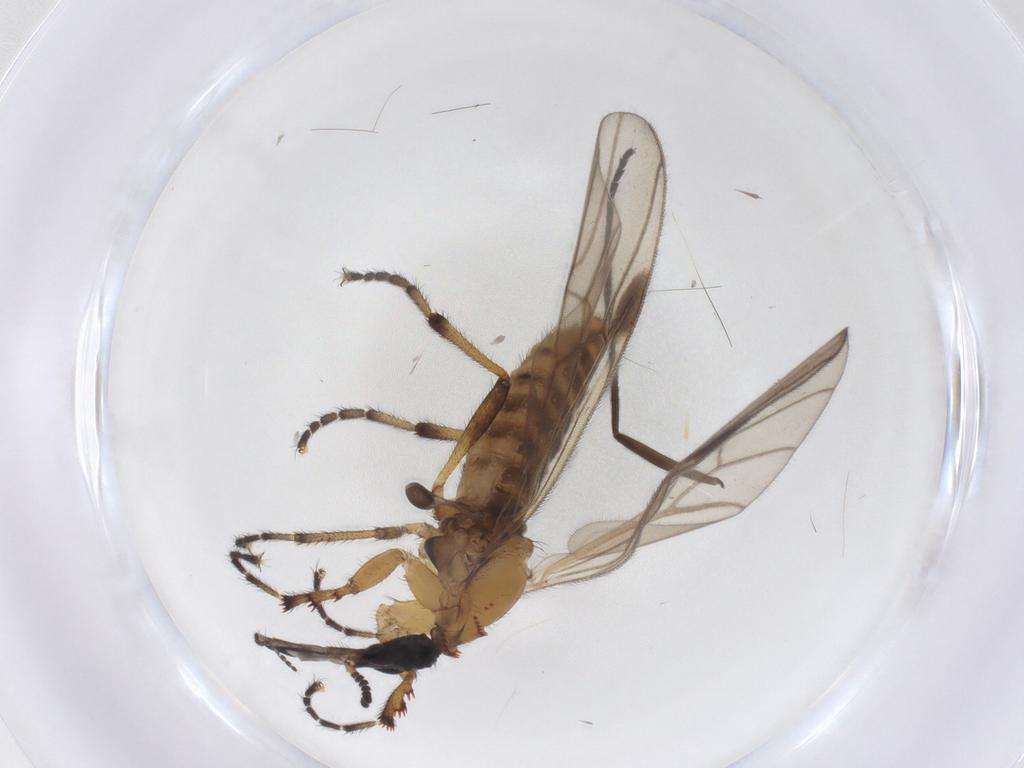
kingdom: Animalia
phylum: Arthropoda
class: Insecta
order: Diptera
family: Bibionidae
